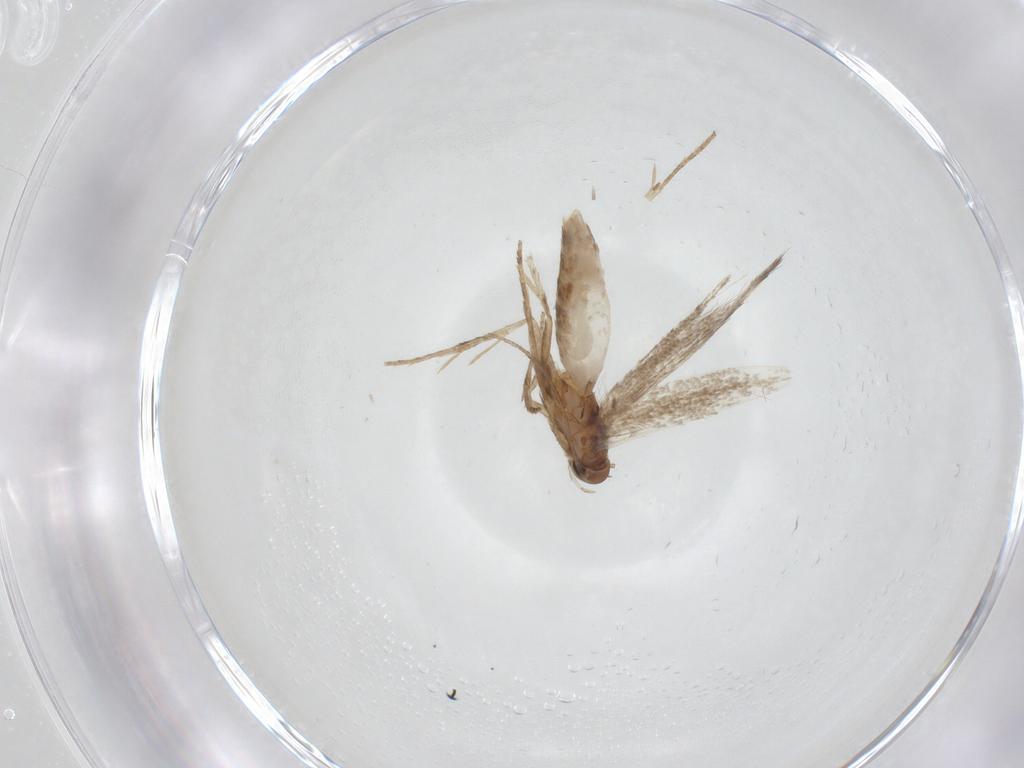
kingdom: Animalia
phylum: Arthropoda
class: Insecta
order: Lepidoptera
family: Gelechiidae
